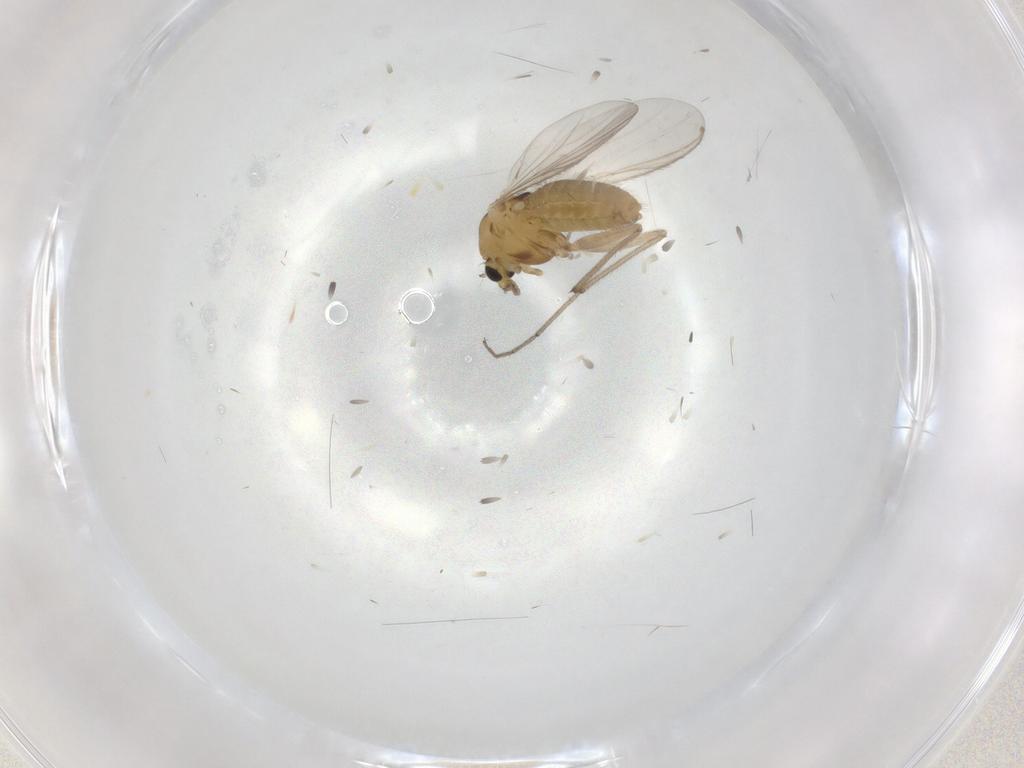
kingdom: Animalia
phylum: Arthropoda
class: Insecta
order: Diptera
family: Chironomidae
